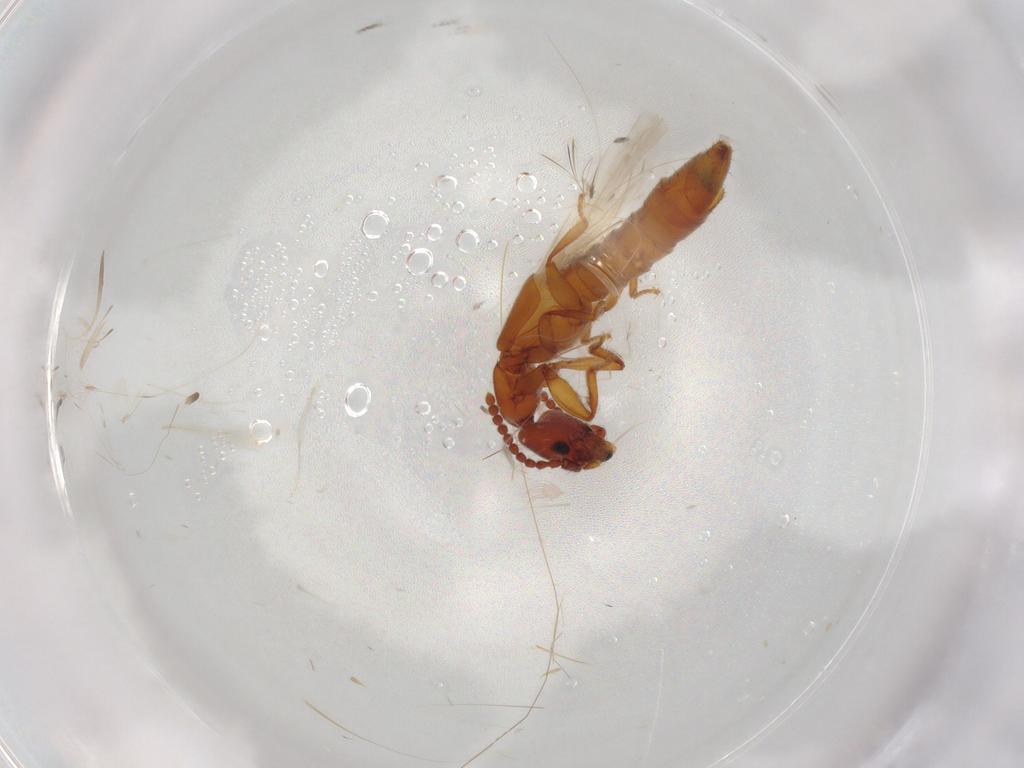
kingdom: Animalia
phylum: Arthropoda
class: Insecta
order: Coleoptera
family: Staphylinidae
